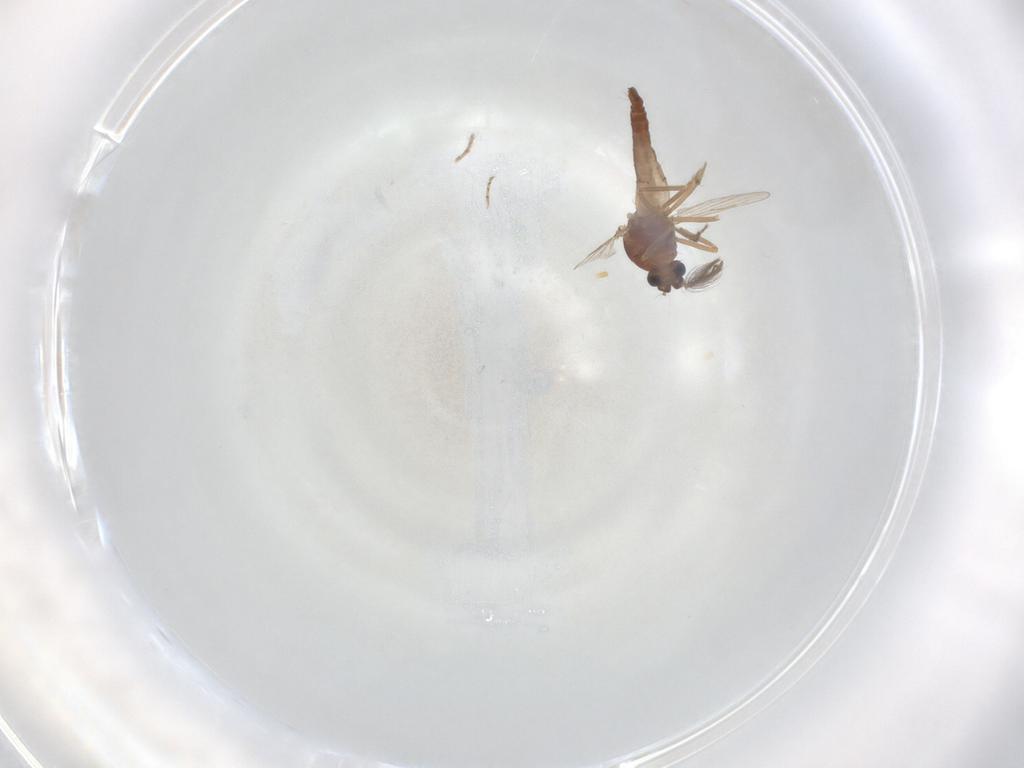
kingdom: Animalia
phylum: Arthropoda
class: Insecta
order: Diptera
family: Ceratopogonidae
